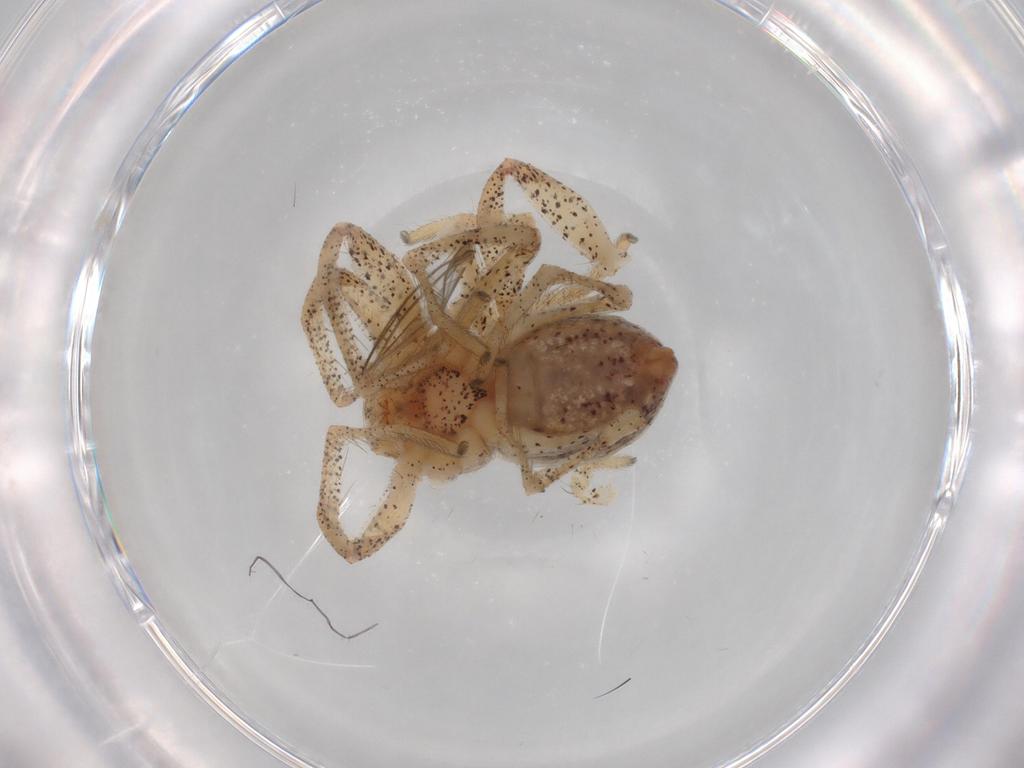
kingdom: Animalia
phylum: Arthropoda
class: Arachnida
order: Araneae
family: Philodromidae
